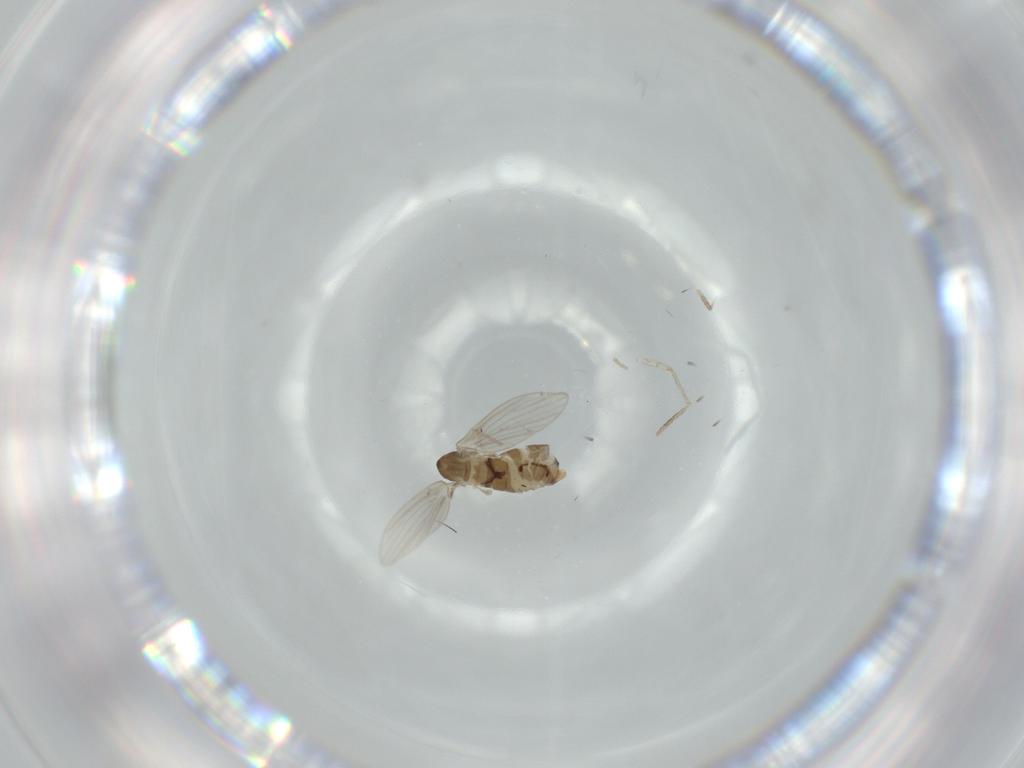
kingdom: Animalia
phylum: Arthropoda
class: Insecta
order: Diptera
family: Psychodidae
